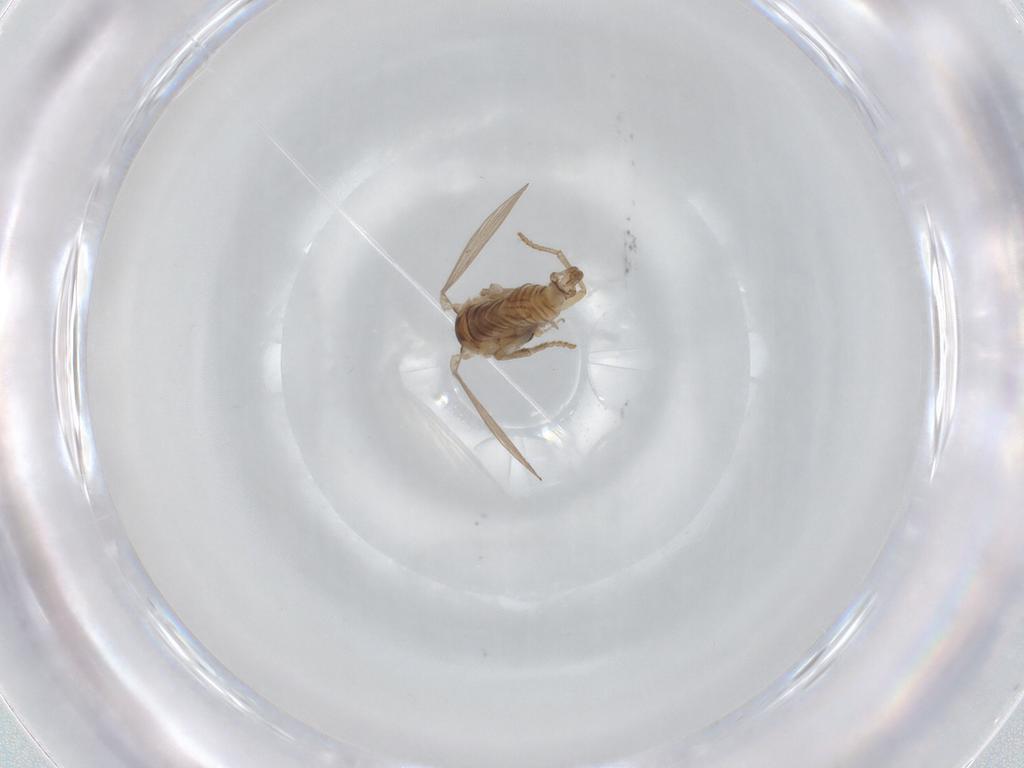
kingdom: Animalia
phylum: Arthropoda
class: Insecta
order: Diptera
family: Psychodidae
